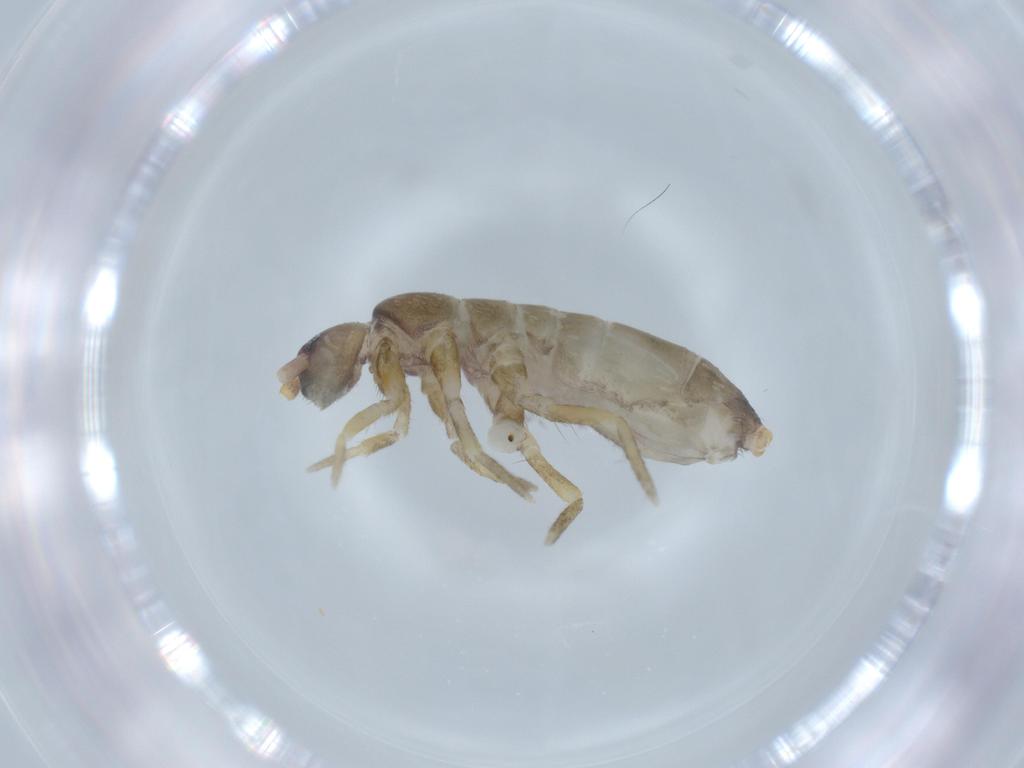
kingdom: Animalia
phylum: Arthropoda
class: Collembola
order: Entomobryomorpha
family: Tomoceridae
